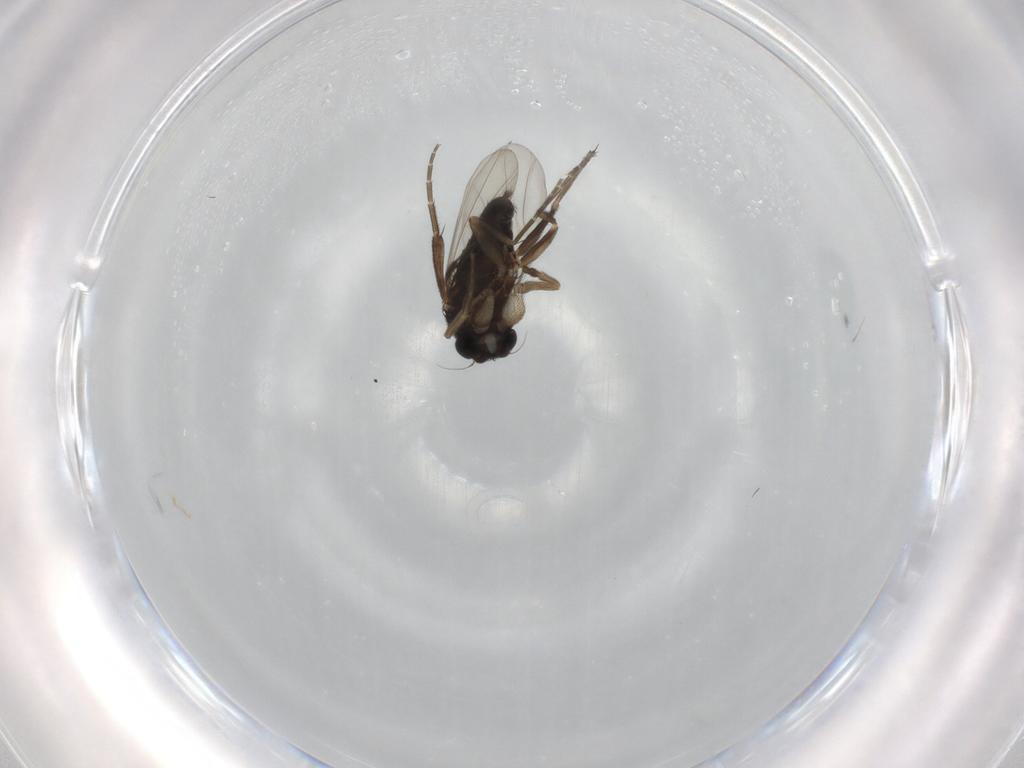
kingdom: Animalia
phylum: Arthropoda
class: Insecta
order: Diptera
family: Phoridae
